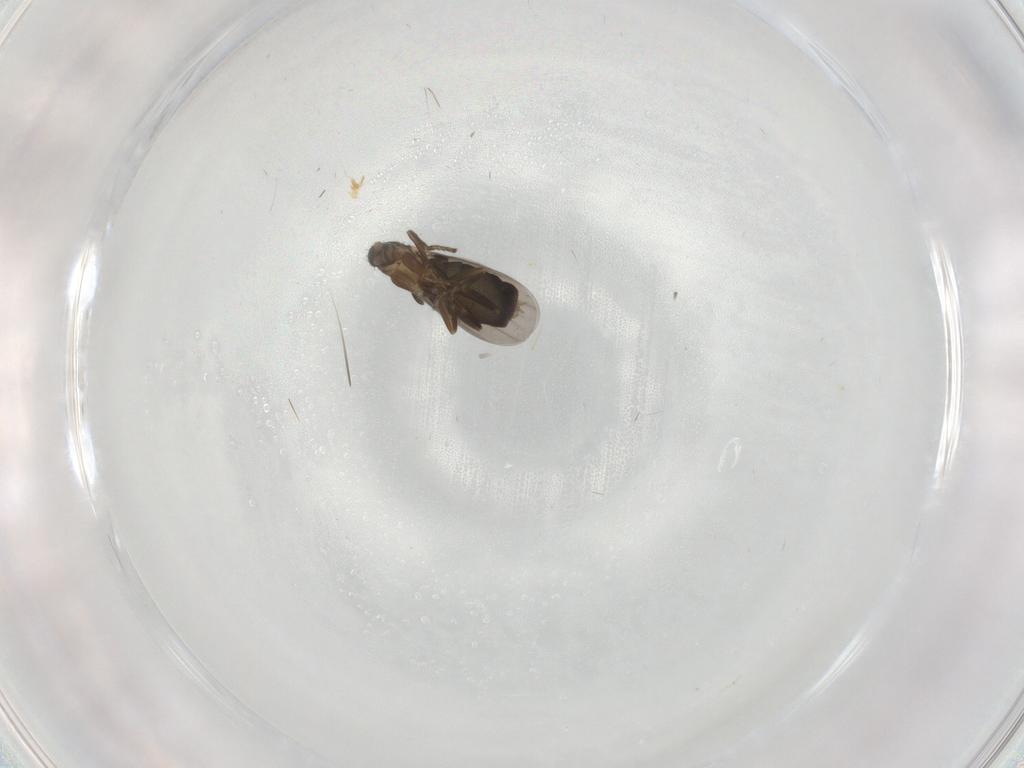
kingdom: Animalia
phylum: Arthropoda
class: Insecta
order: Diptera
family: Phoridae
